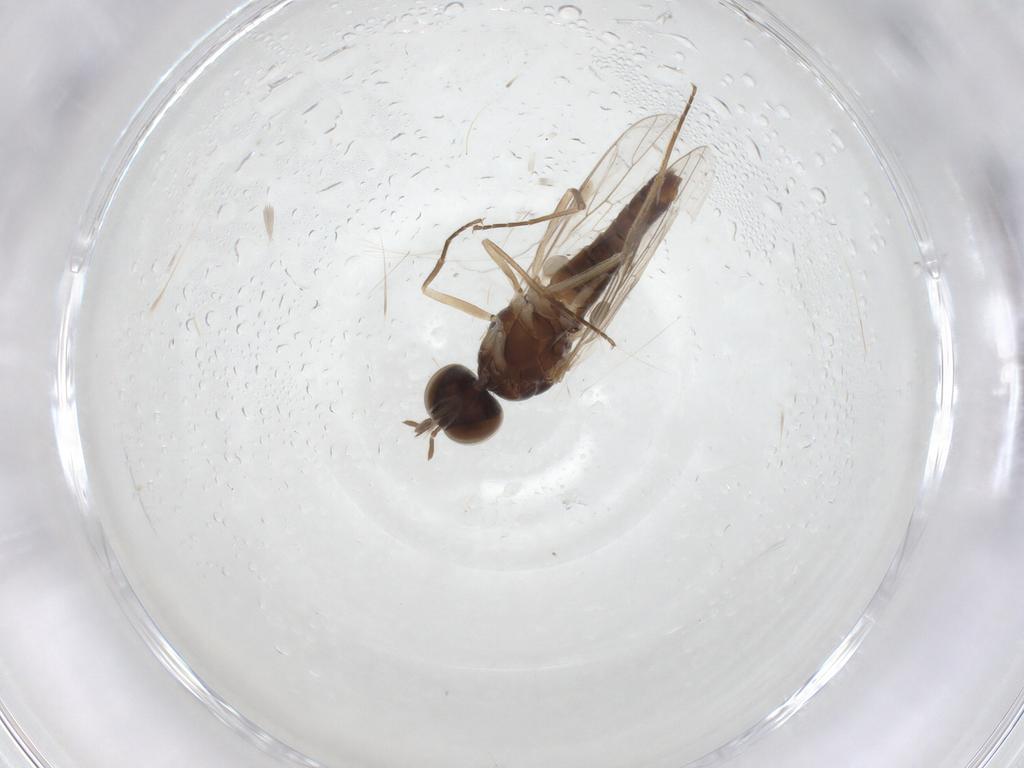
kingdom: Animalia
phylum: Arthropoda
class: Insecta
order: Diptera
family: Scenopinidae
